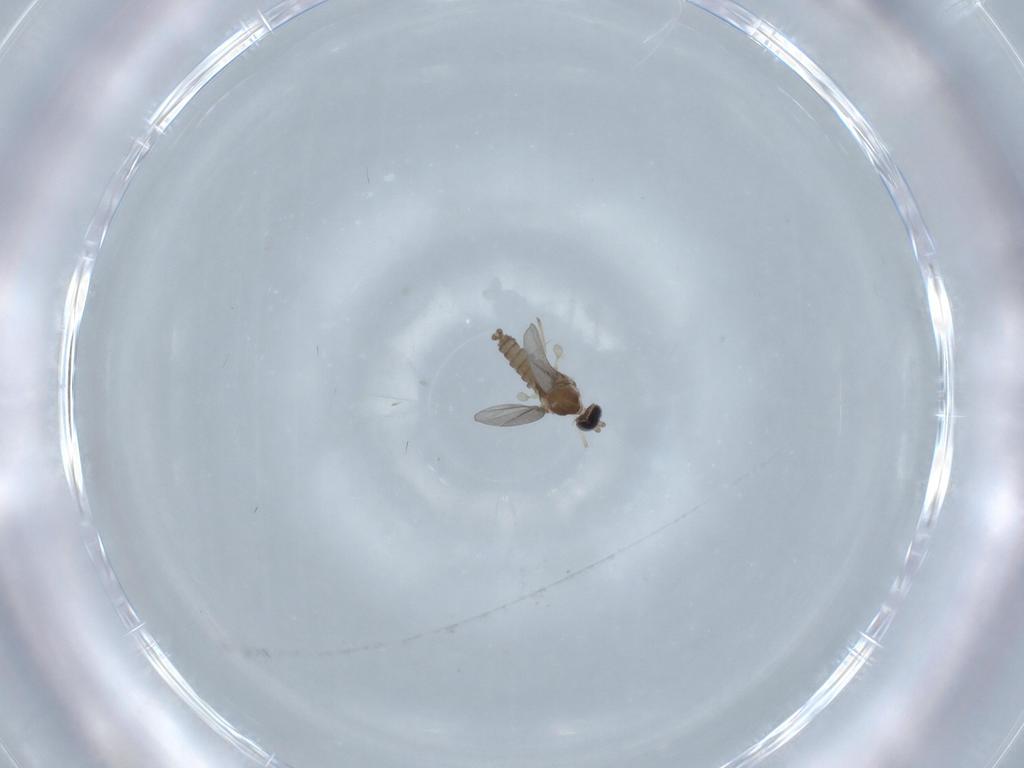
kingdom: Animalia
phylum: Arthropoda
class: Insecta
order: Diptera
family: Cecidomyiidae
